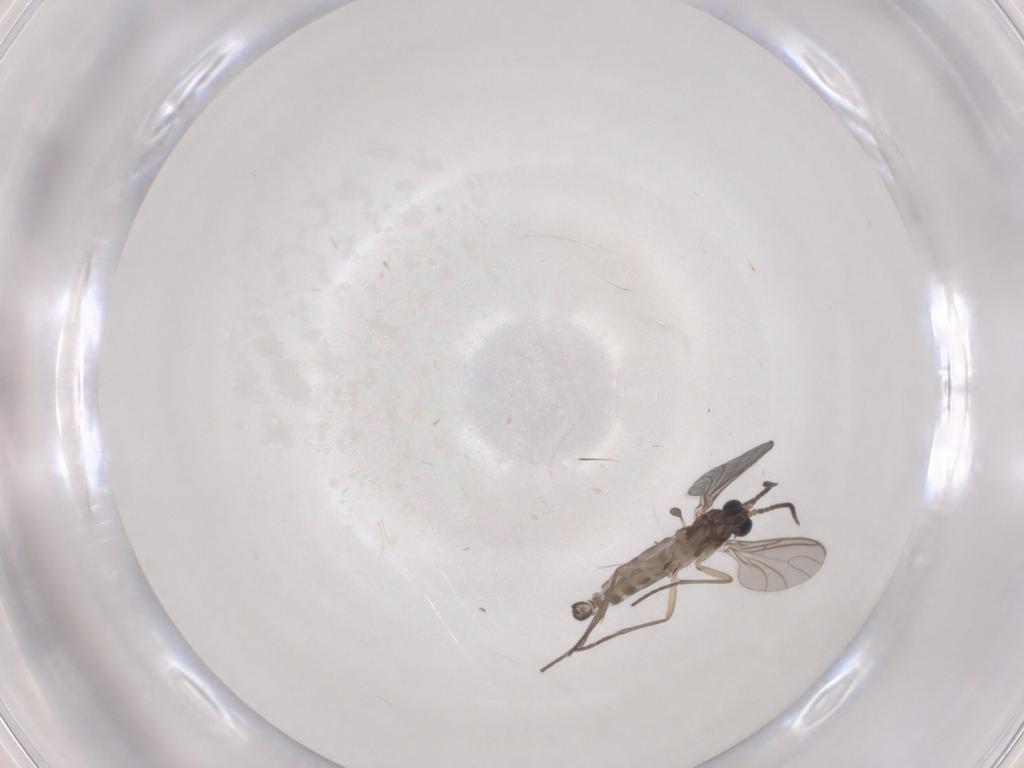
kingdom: Animalia
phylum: Arthropoda
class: Insecta
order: Diptera
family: Sciaridae
